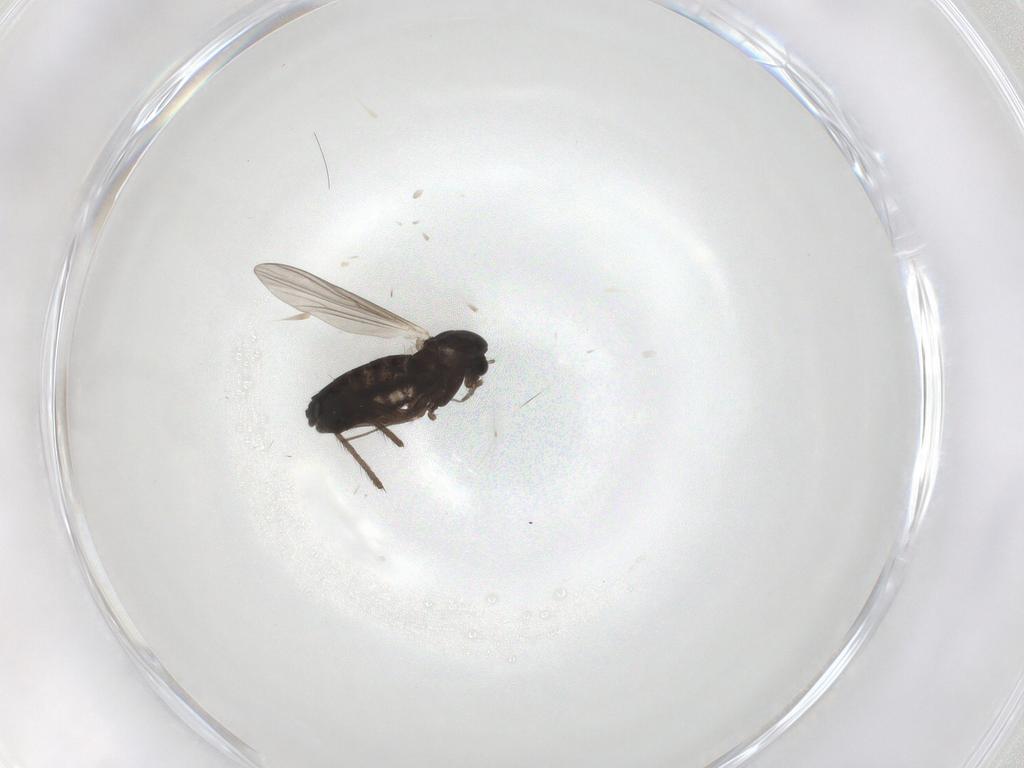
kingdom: Animalia
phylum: Arthropoda
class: Insecta
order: Diptera
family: Chironomidae
